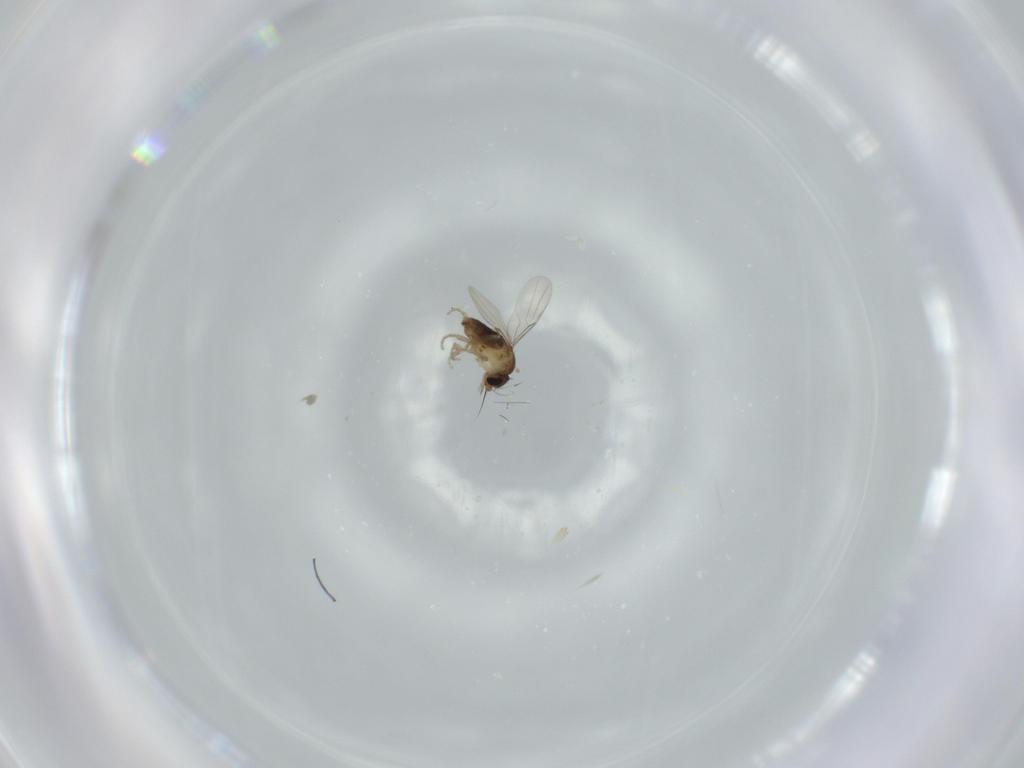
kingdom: Animalia
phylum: Arthropoda
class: Insecta
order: Diptera
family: Phoridae
